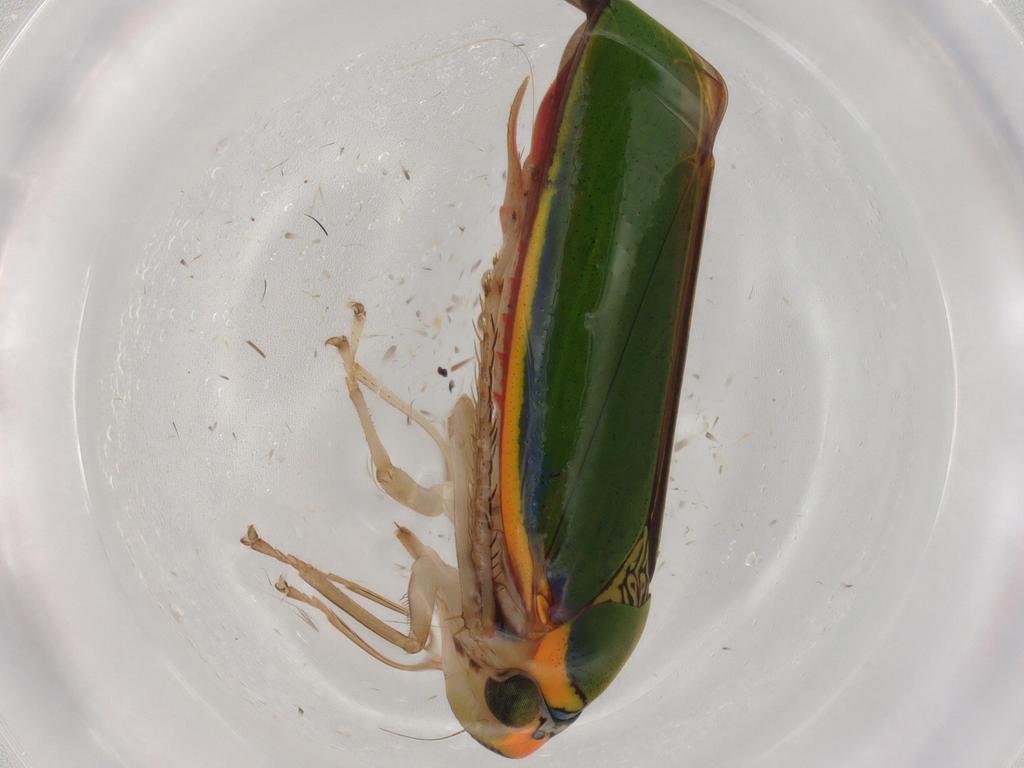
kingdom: Animalia
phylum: Arthropoda
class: Insecta
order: Hemiptera
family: Cicadellidae
